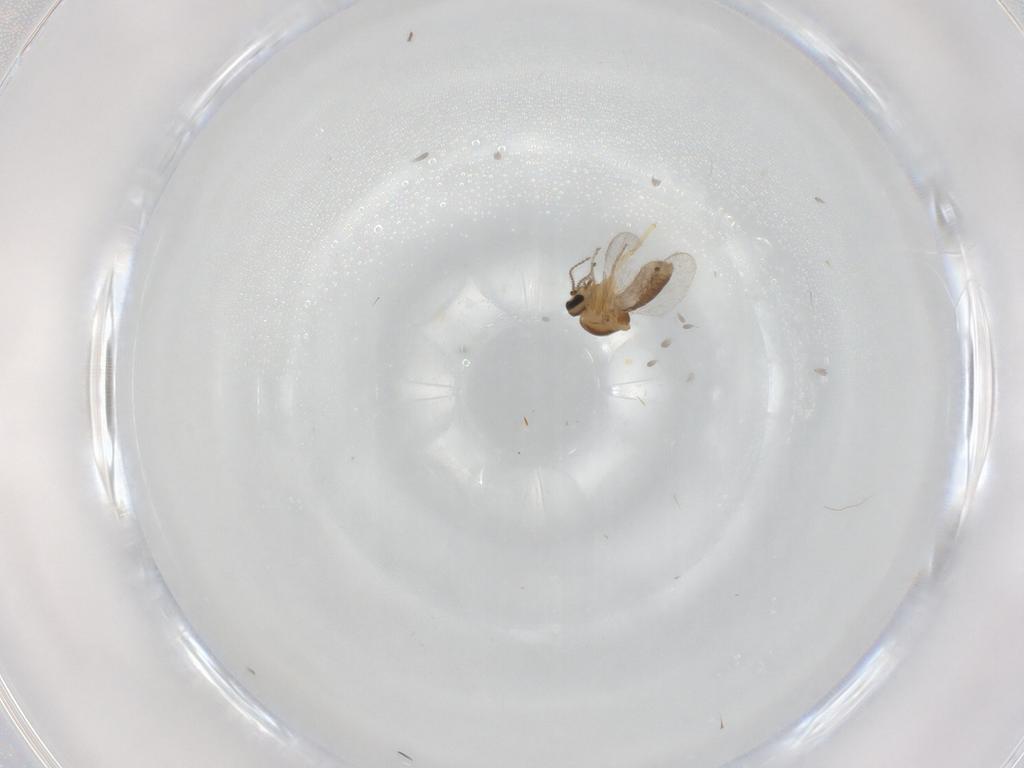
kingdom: Animalia
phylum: Arthropoda
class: Insecta
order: Diptera
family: Ceratopogonidae
